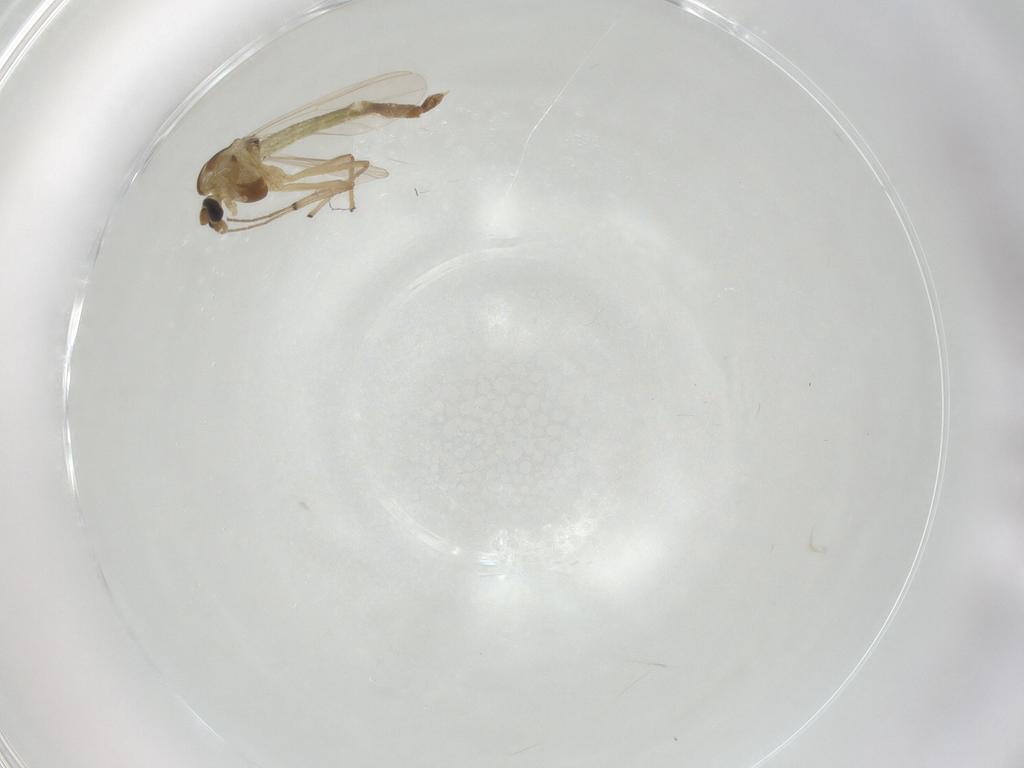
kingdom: Animalia
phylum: Arthropoda
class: Insecta
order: Diptera
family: Chironomidae
